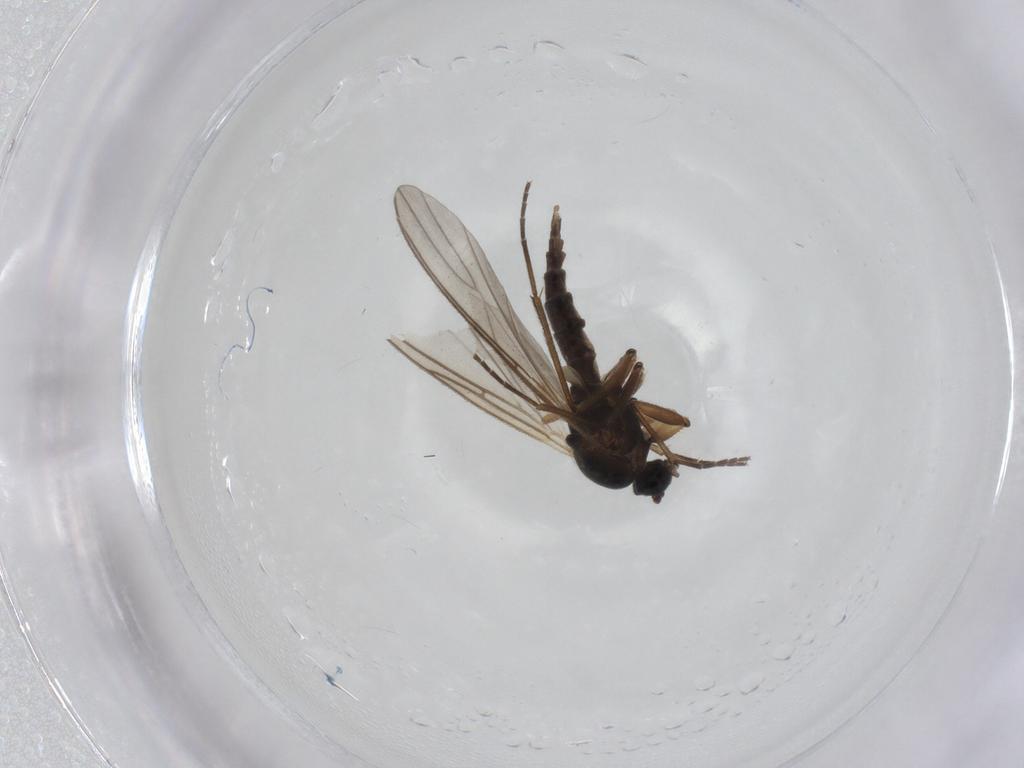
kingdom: Animalia
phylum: Arthropoda
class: Insecta
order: Diptera
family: Sciaridae
